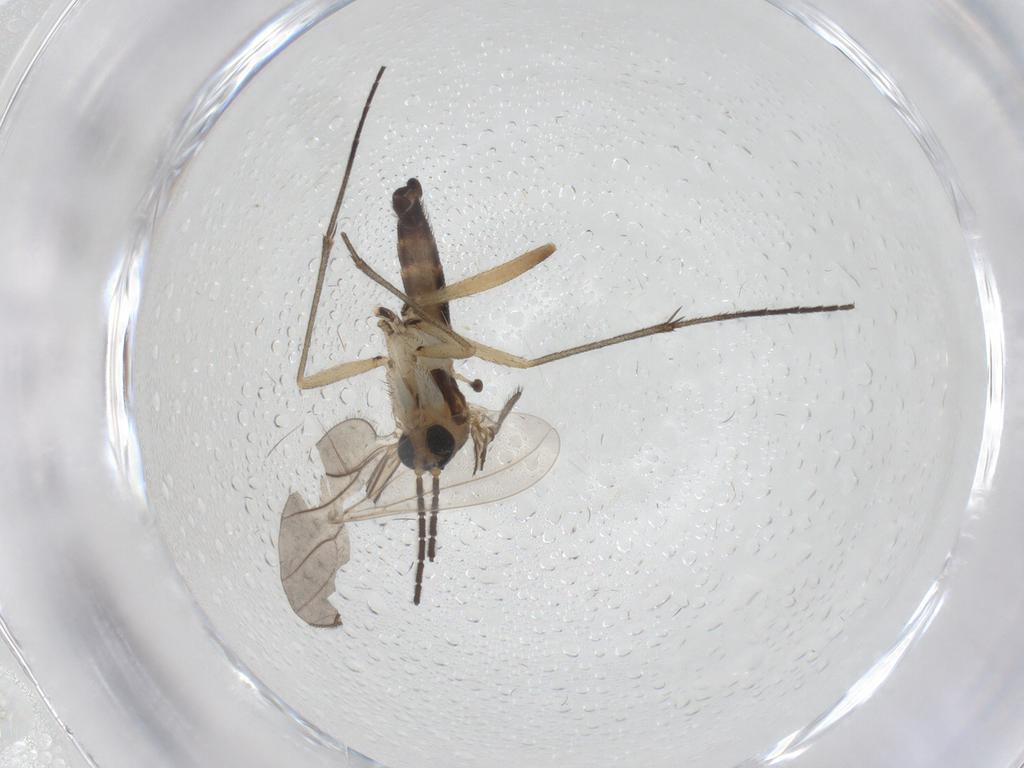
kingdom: Animalia
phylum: Arthropoda
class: Insecta
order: Diptera
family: Sciaridae
